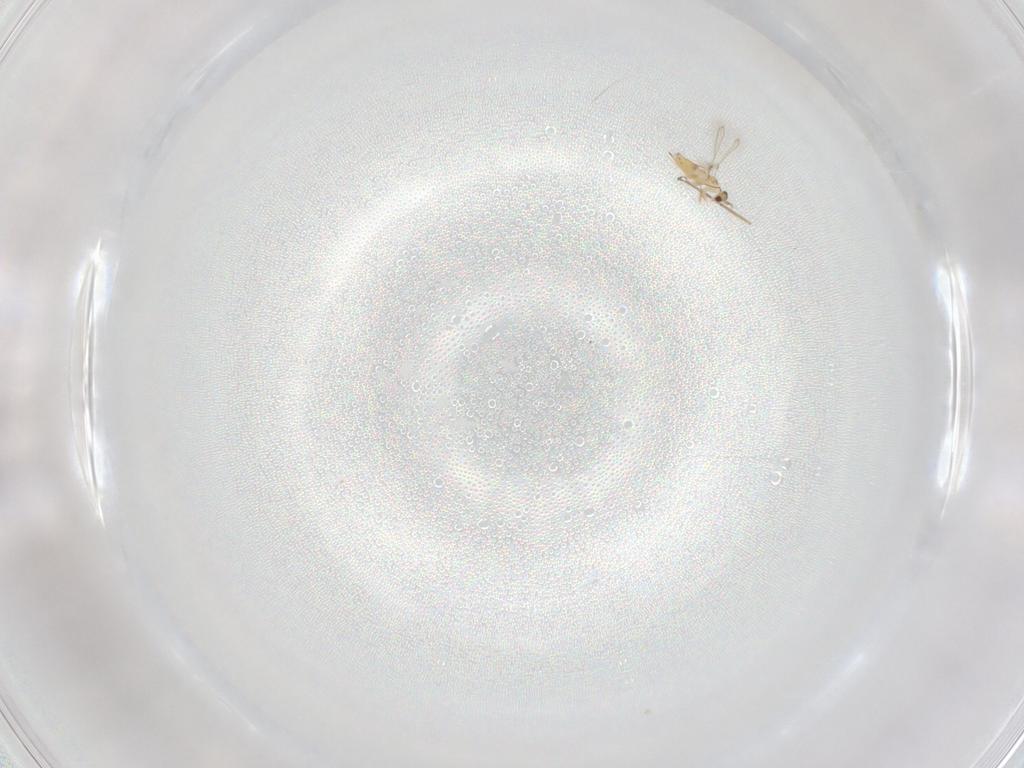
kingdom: Animalia
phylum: Arthropoda
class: Insecta
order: Hymenoptera
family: Mymaridae
